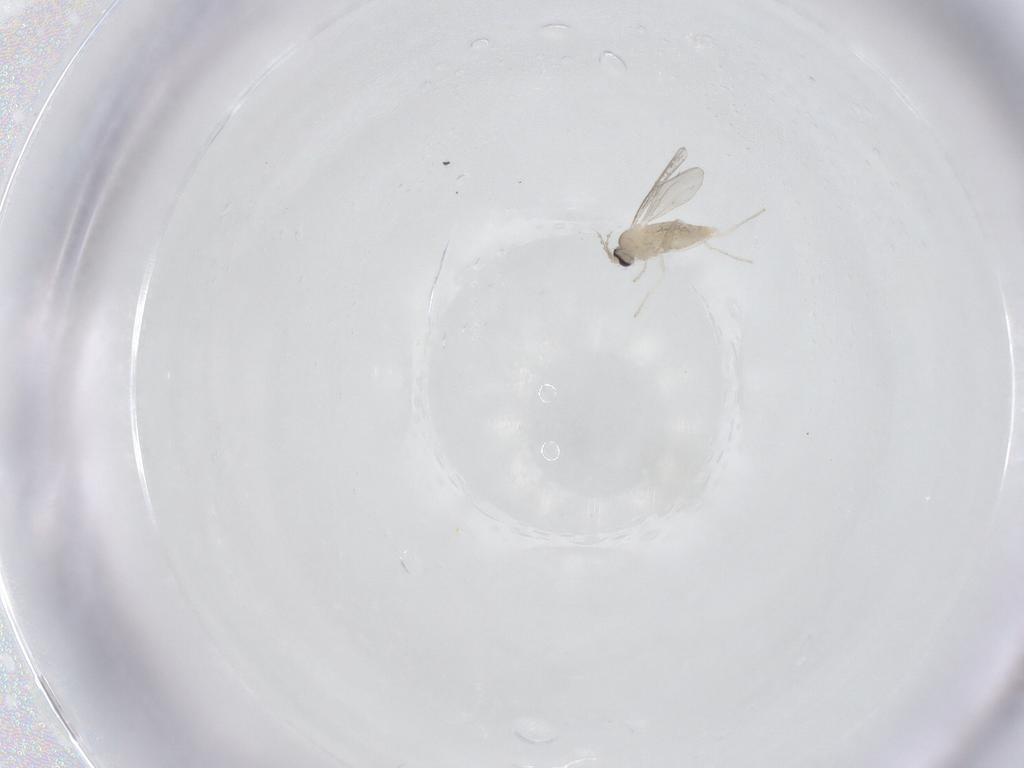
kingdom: Animalia
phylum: Arthropoda
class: Insecta
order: Diptera
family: Cecidomyiidae
